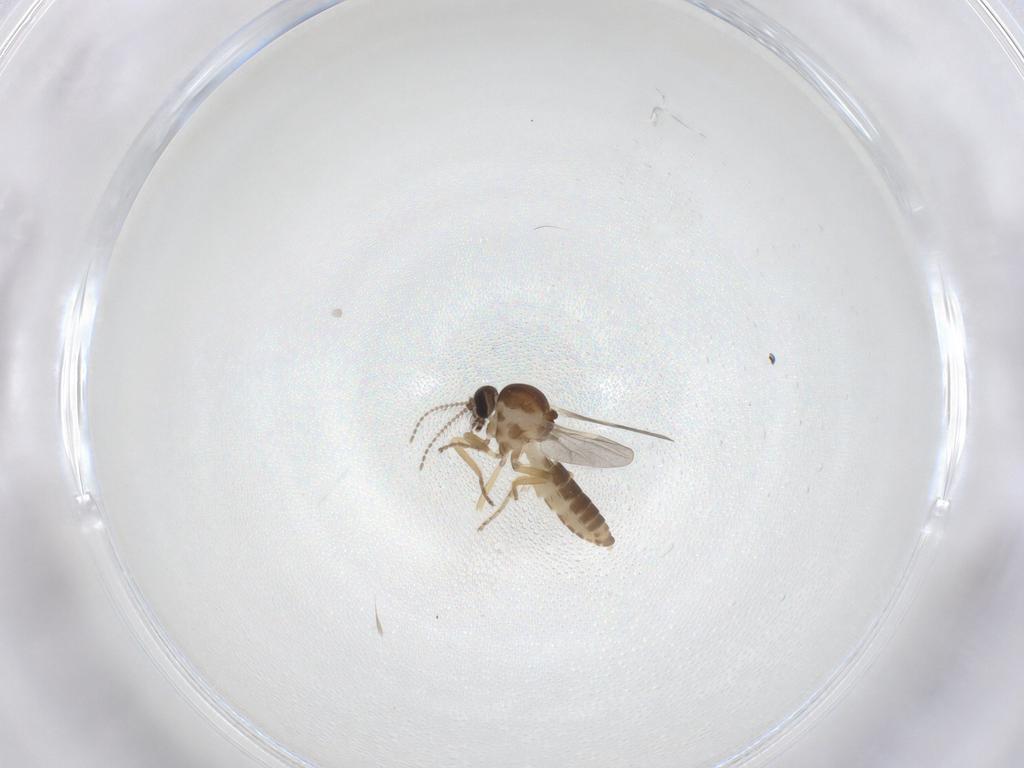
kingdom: Animalia
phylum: Arthropoda
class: Insecta
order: Diptera
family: Ceratopogonidae
